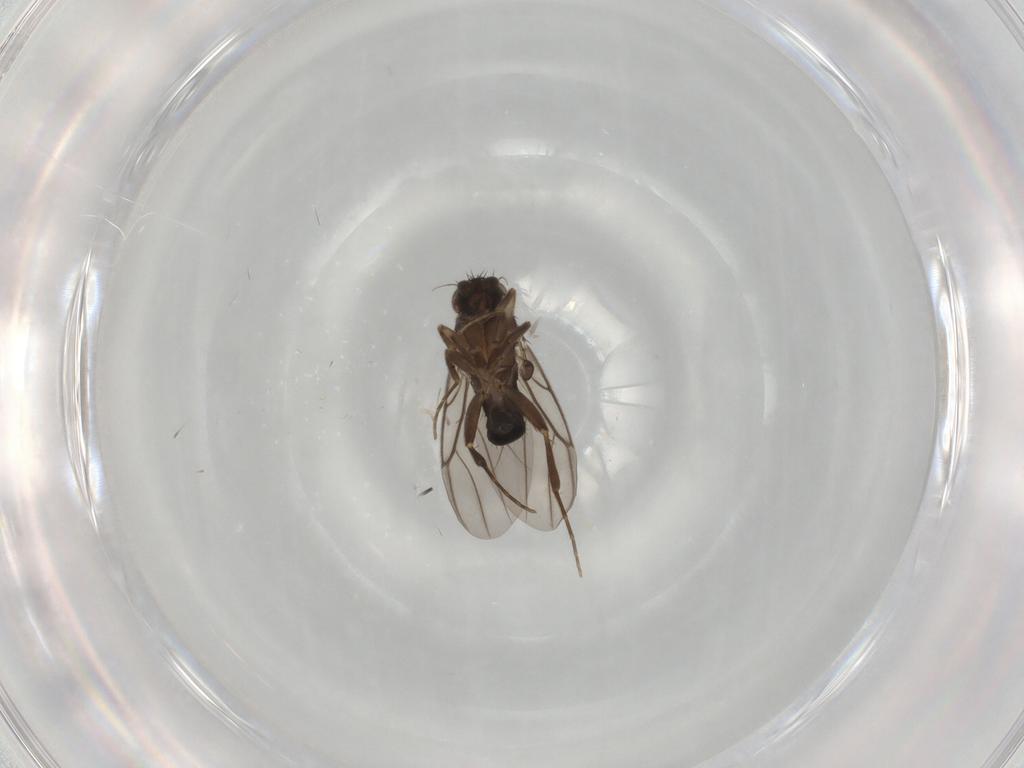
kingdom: Animalia
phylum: Arthropoda
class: Insecta
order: Diptera
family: Phoridae
